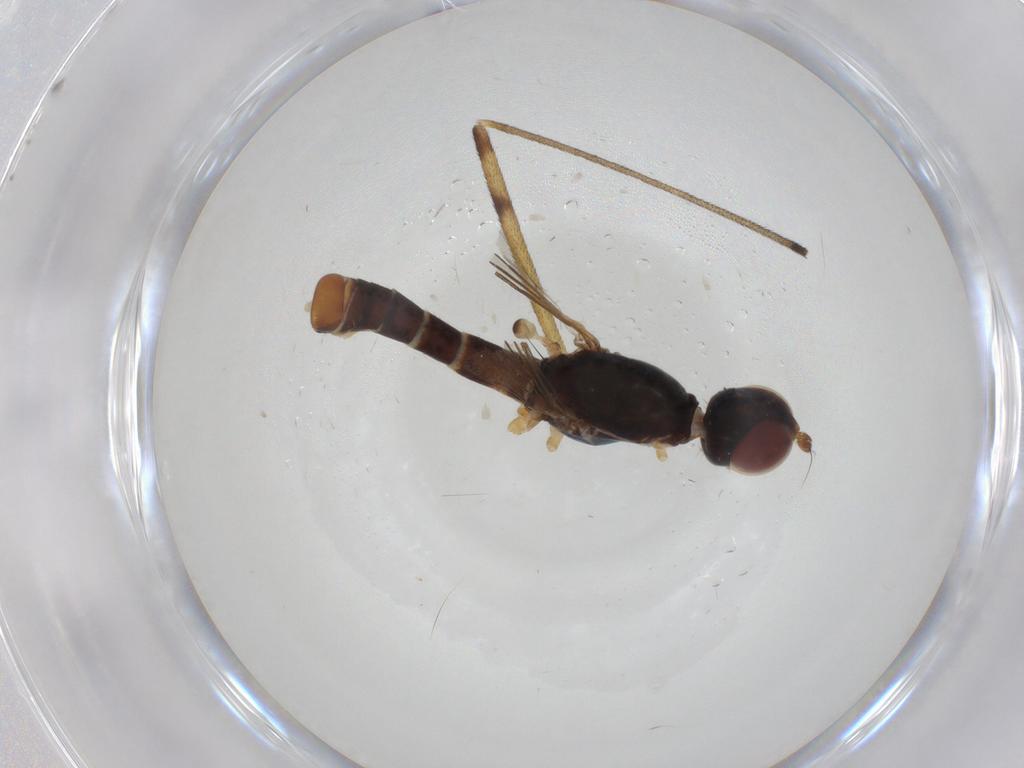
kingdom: Animalia
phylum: Arthropoda
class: Insecta
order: Diptera
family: Micropezidae
